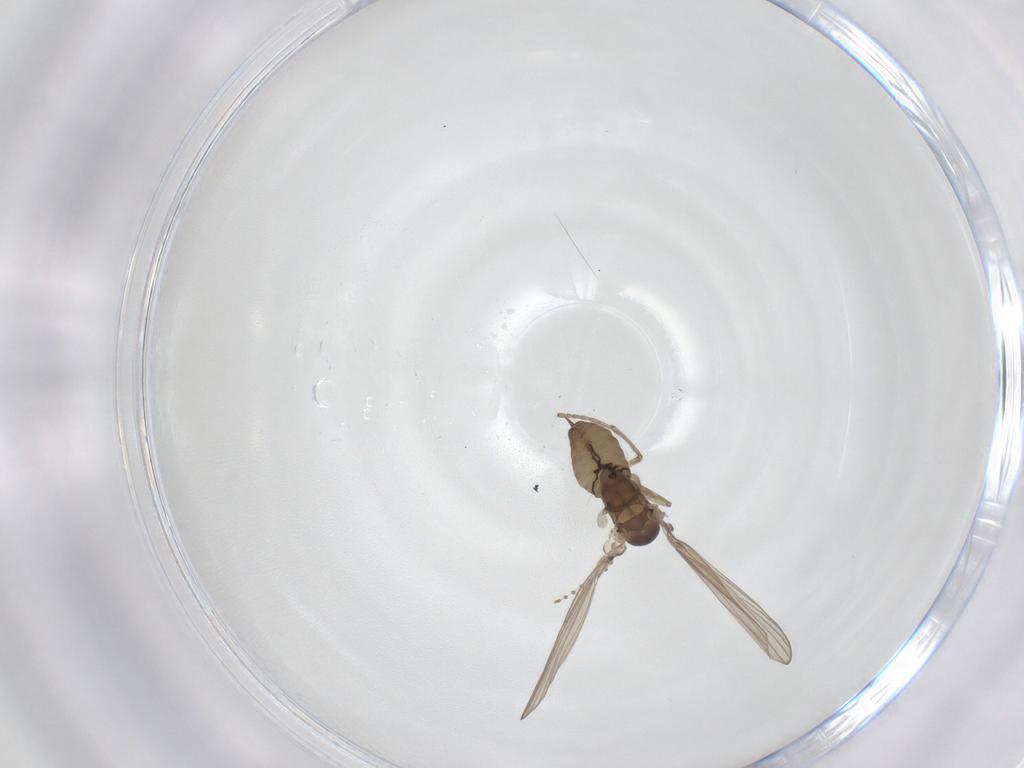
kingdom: Animalia
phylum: Arthropoda
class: Insecta
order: Diptera
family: Psychodidae
